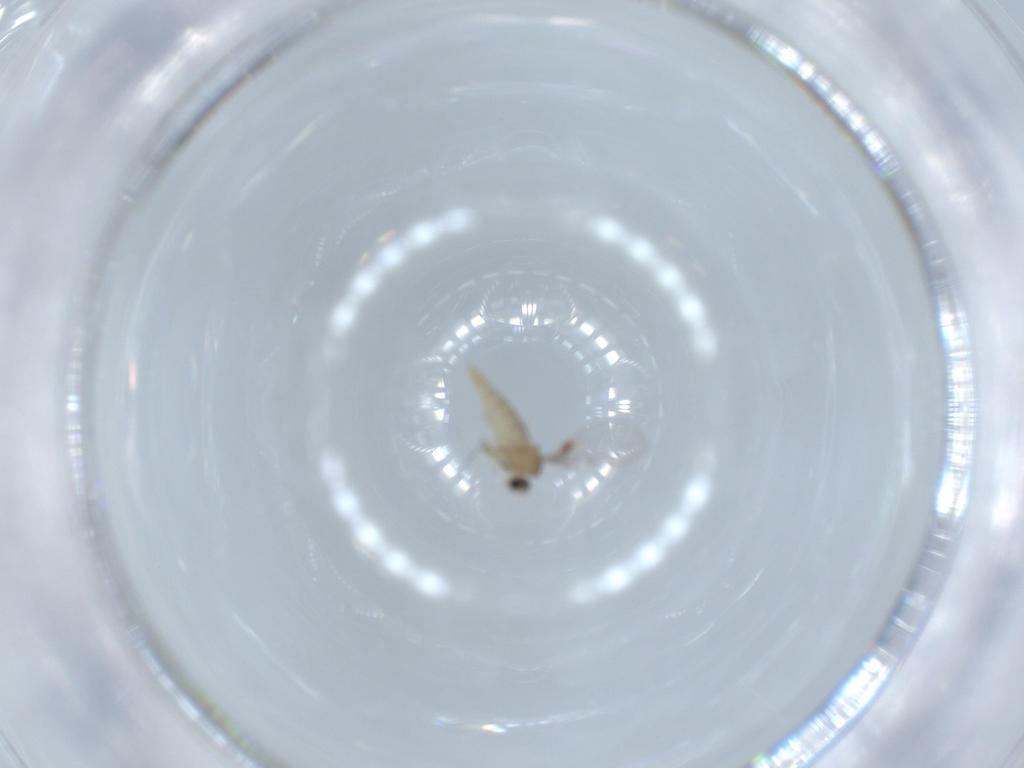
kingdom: Animalia
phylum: Arthropoda
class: Insecta
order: Diptera
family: Cecidomyiidae
